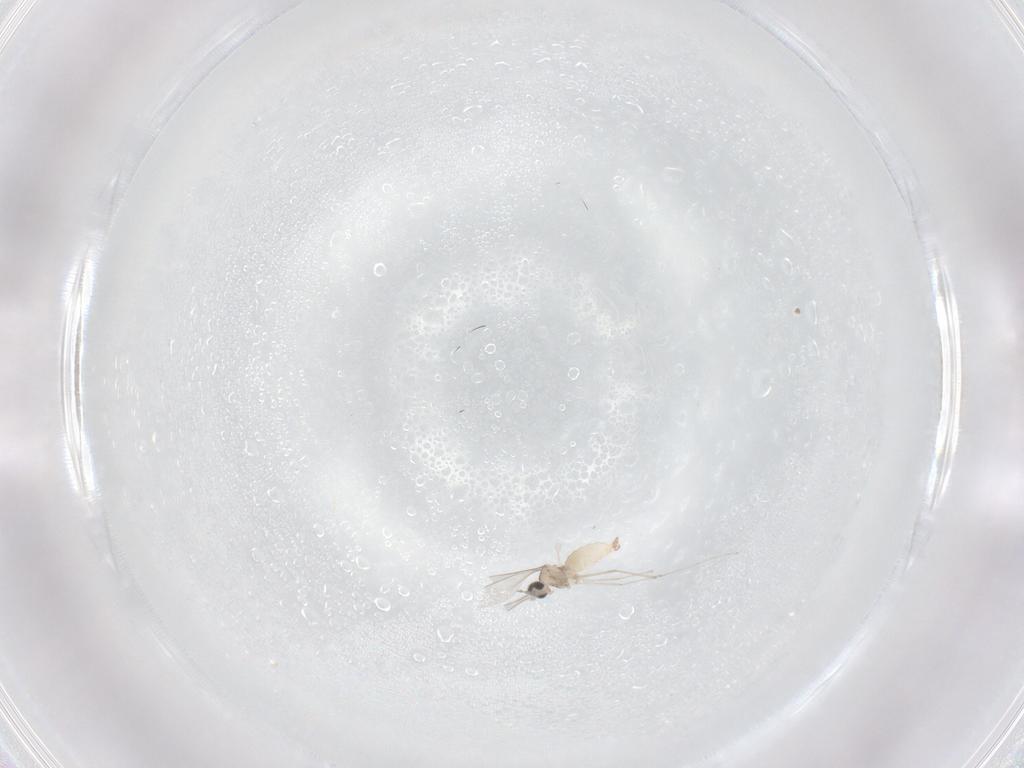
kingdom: Animalia
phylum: Arthropoda
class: Insecta
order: Diptera
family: Cecidomyiidae
